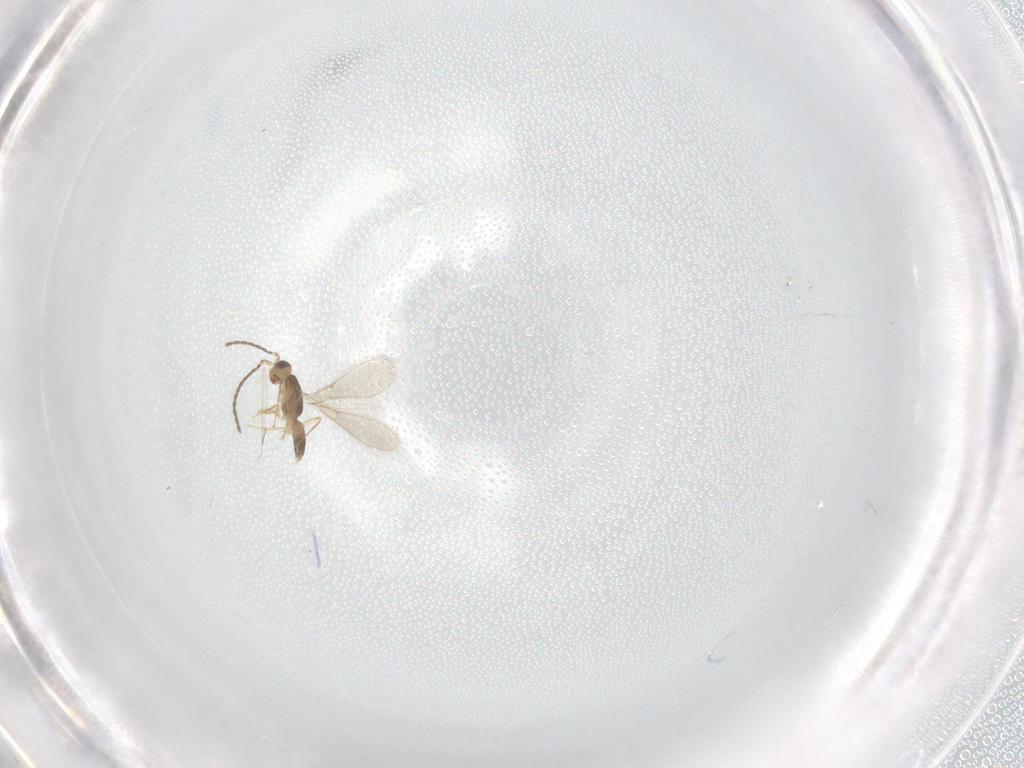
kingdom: Animalia
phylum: Arthropoda
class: Insecta
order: Hymenoptera
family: Mymaridae
